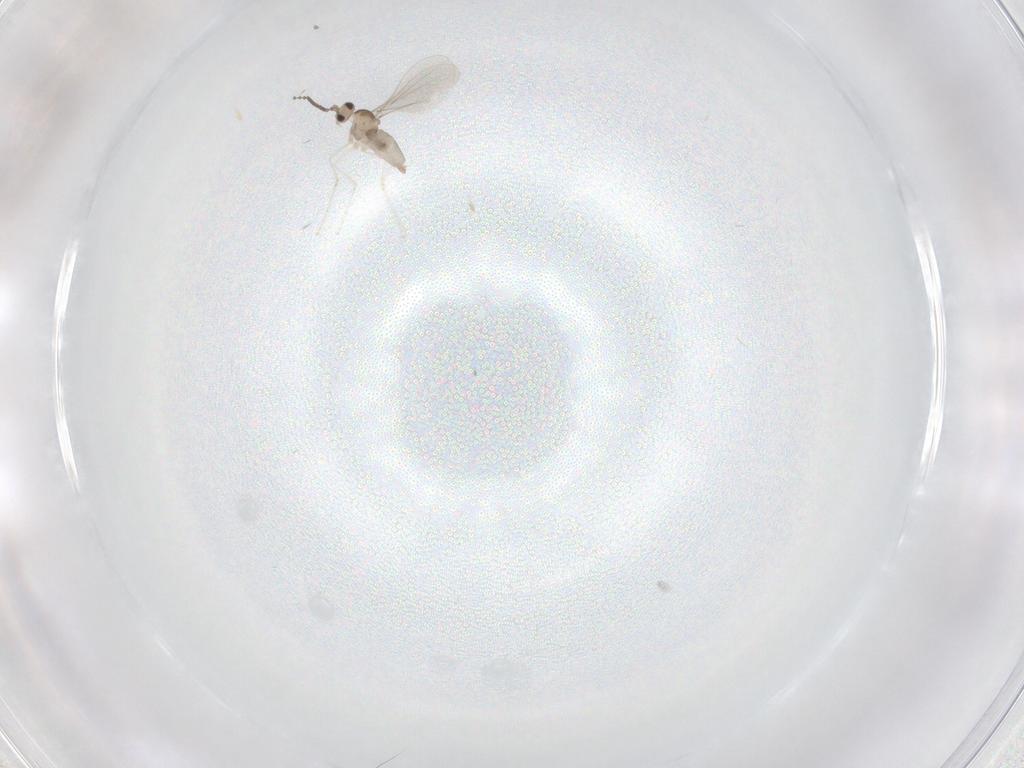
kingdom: Animalia
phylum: Arthropoda
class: Insecta
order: Diptera
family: Cecidomyiidae
